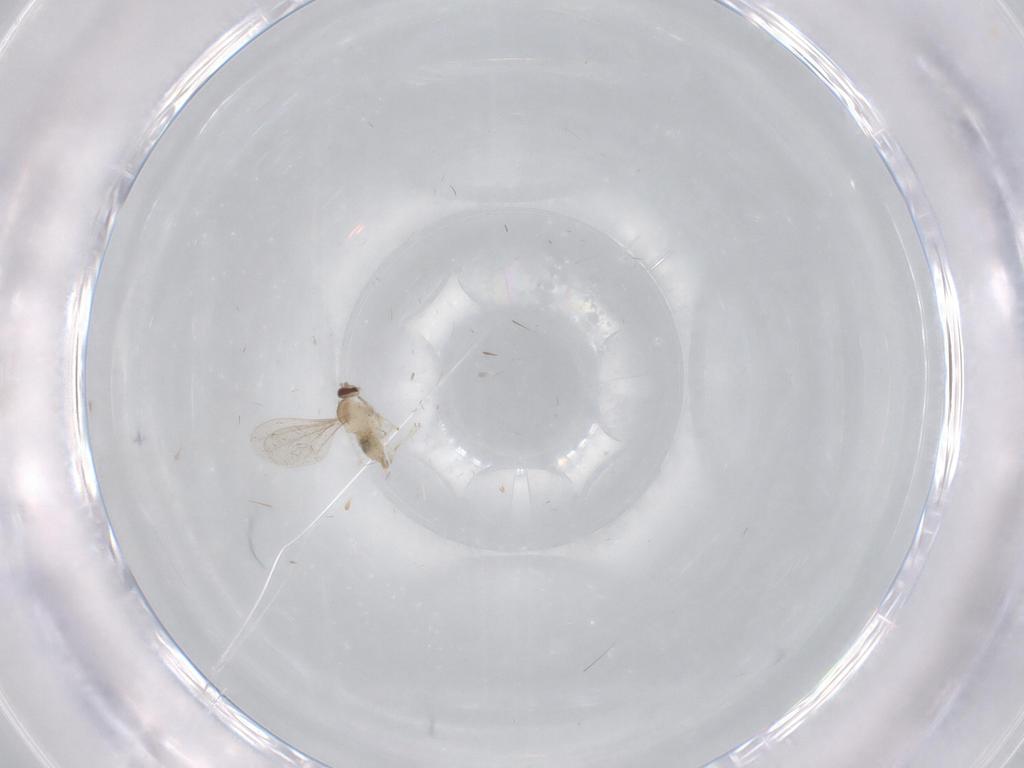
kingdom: Animalia
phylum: Arthropoda
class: Insecta
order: Diptera
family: Cecidomyiidae
